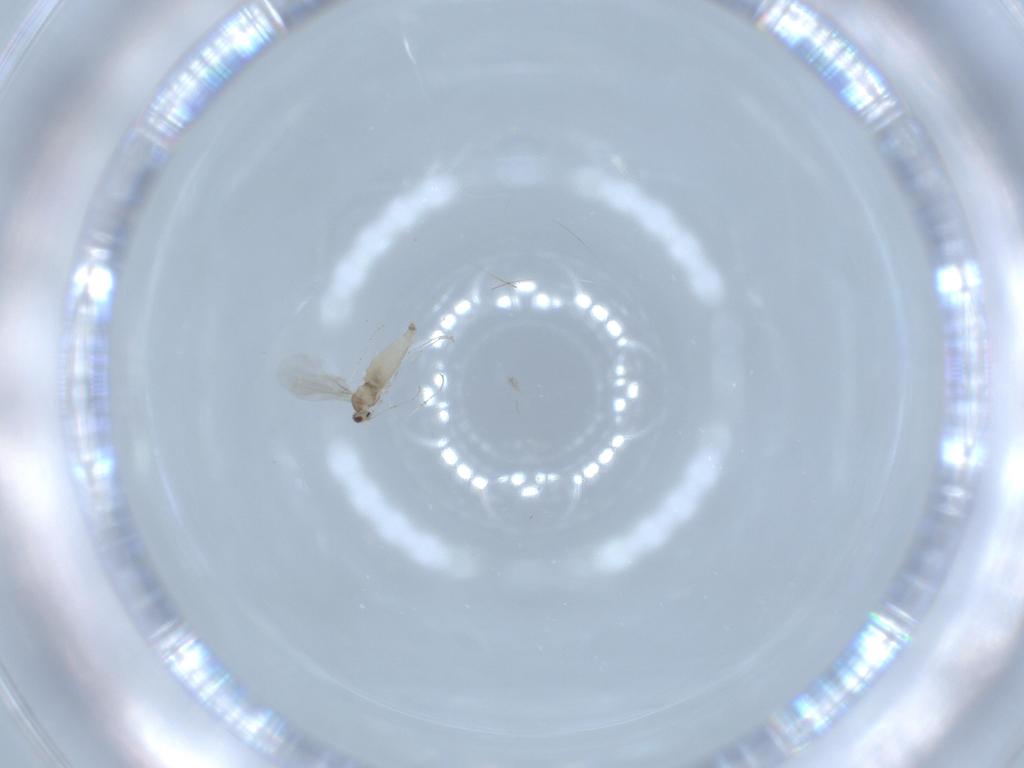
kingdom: Animalia
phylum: Arthropoda
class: Insecta
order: Diptera
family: Cecidomyiidae
